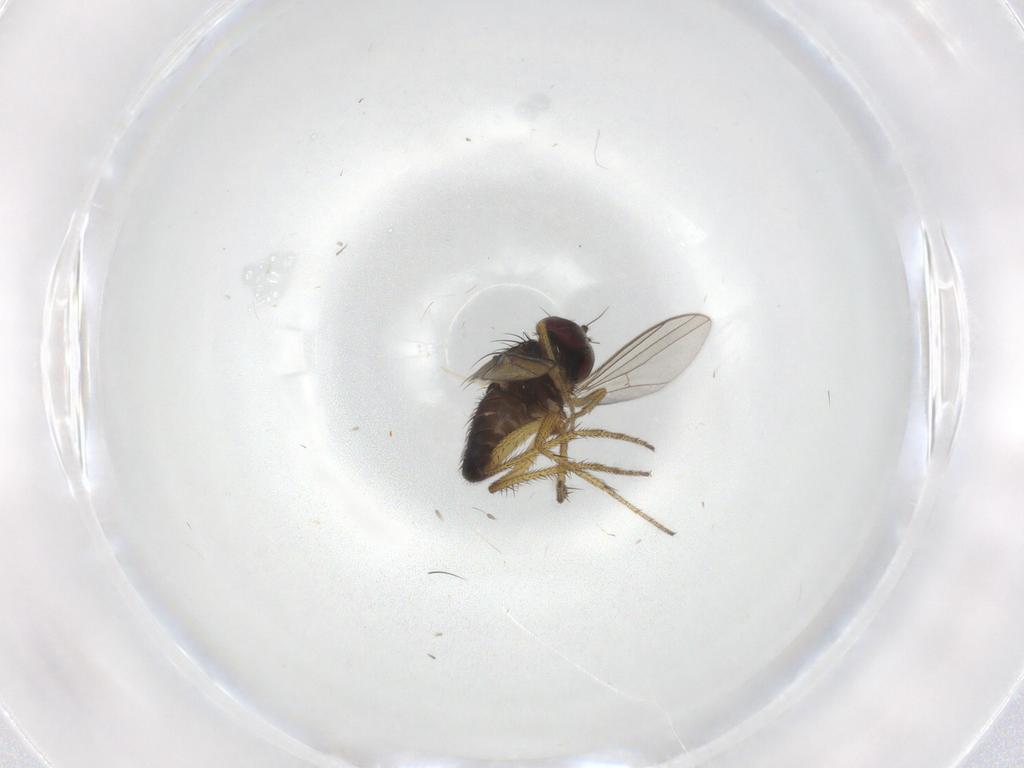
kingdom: Animalia
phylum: Arthropoda
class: Insecta
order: Diptera
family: Dolichopodidae
